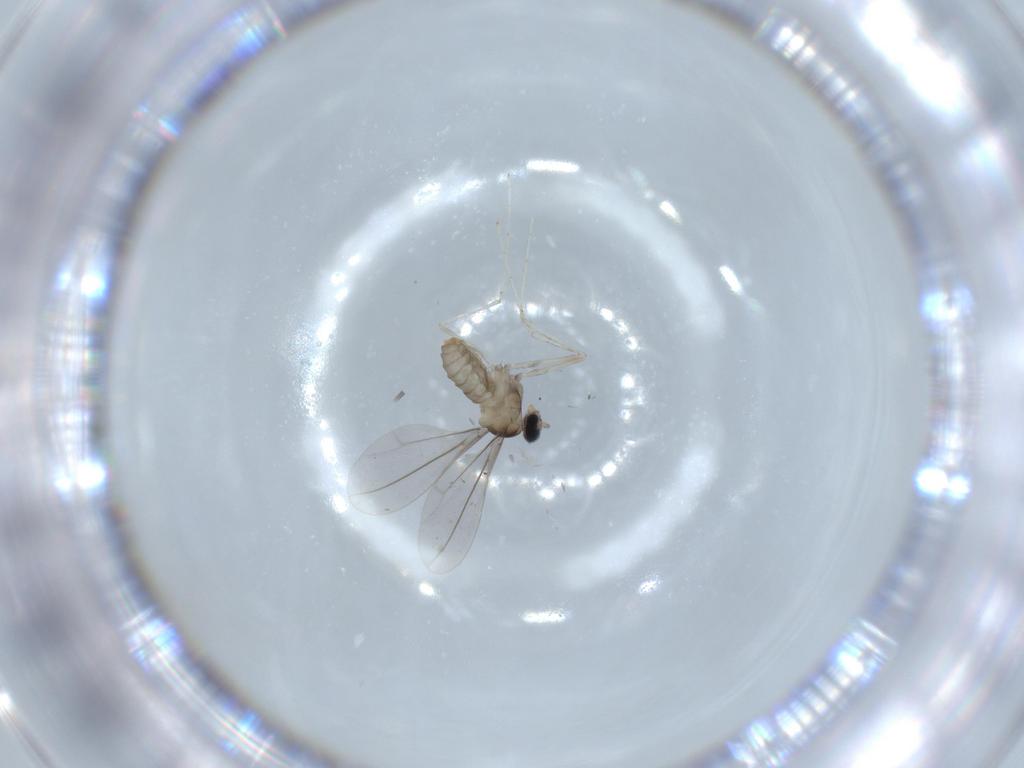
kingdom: Animalia
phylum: Arthropoda
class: Insecta
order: Diptera
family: Cecidomyiidae
